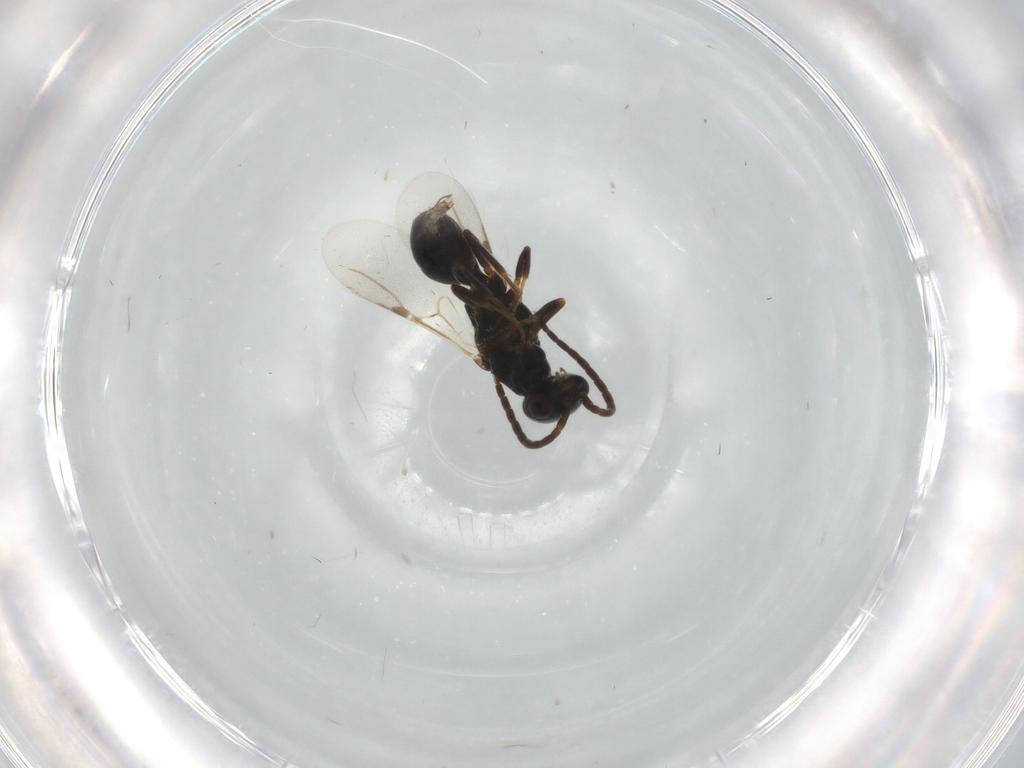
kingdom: Animalia
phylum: Arthropoda
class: Insecta
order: Hymenoptera
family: Bethylidae
